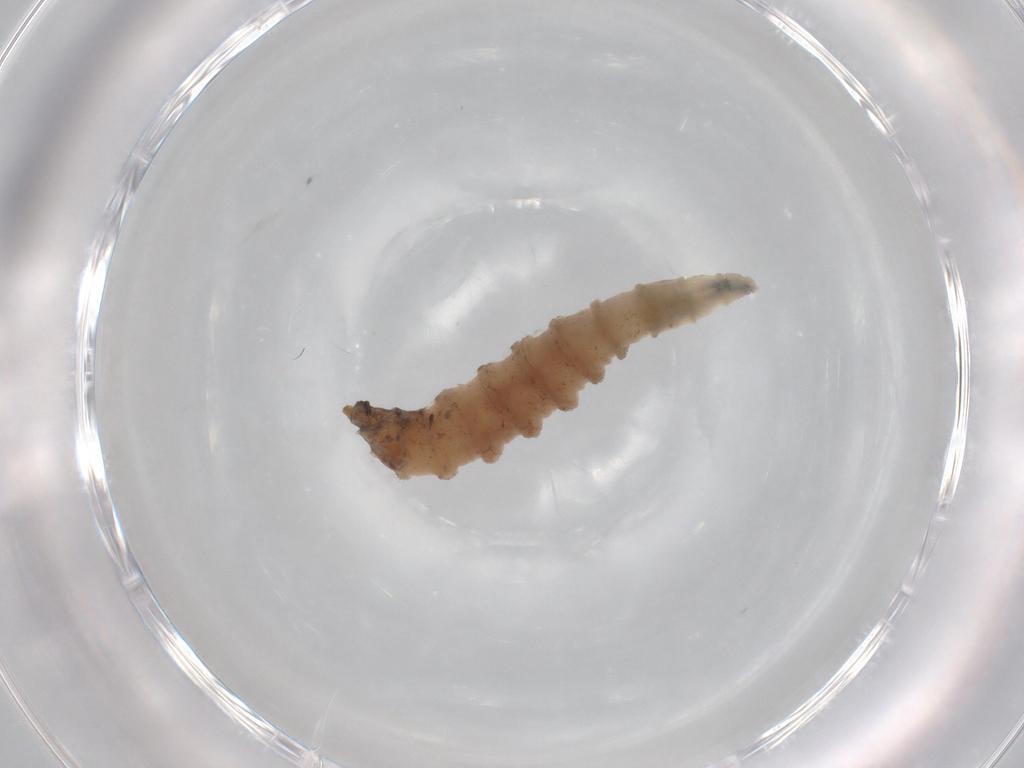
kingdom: Animalia
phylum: Arthropoda
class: Insecta
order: Diptera
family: Drosophilidae
